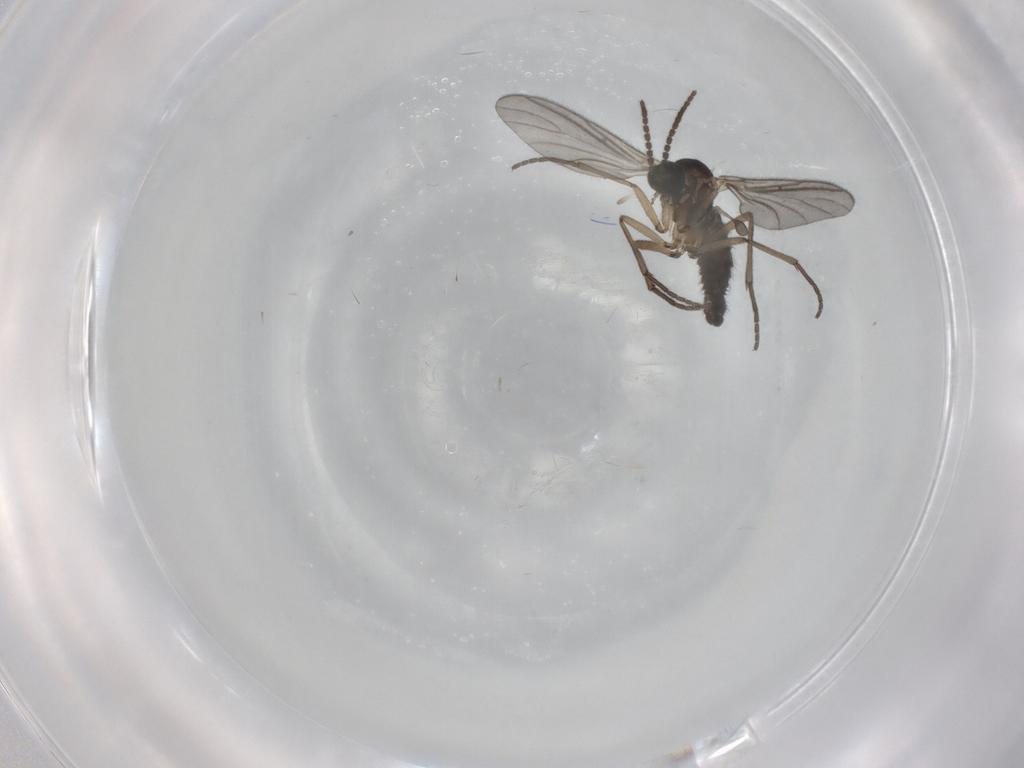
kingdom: Animalia
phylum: Arthropoda
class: Insecta
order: Diptera
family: Sciaridae
